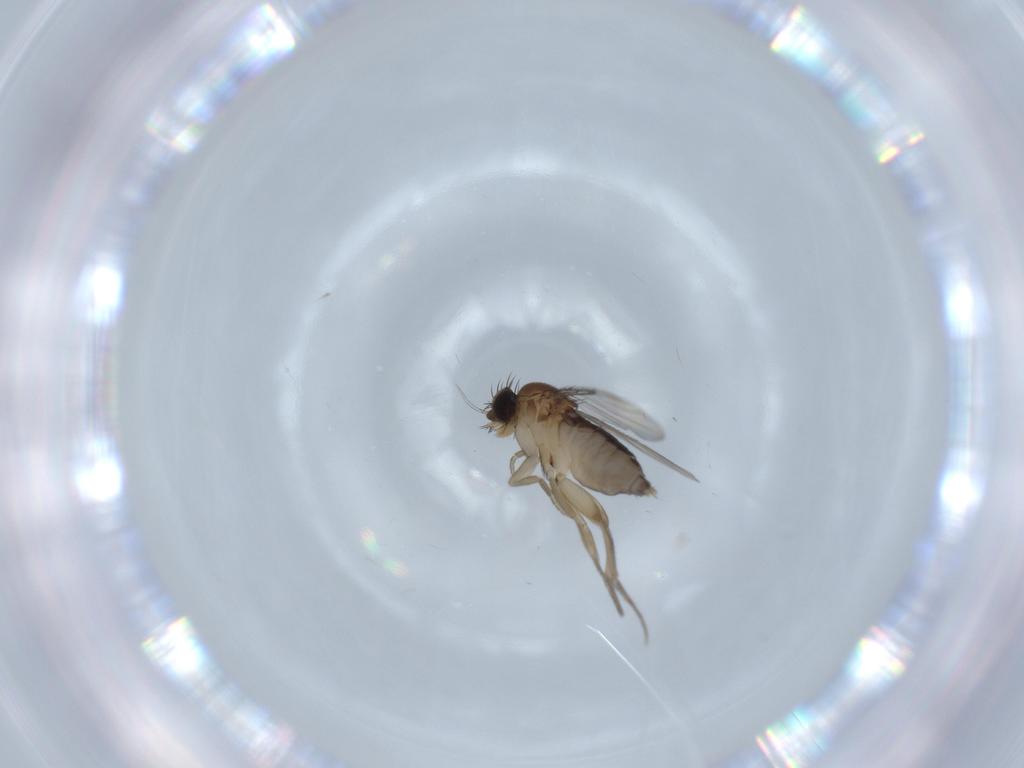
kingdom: Animalia
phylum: Arthropoda
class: Insecta
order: Diptera
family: Phoridae
